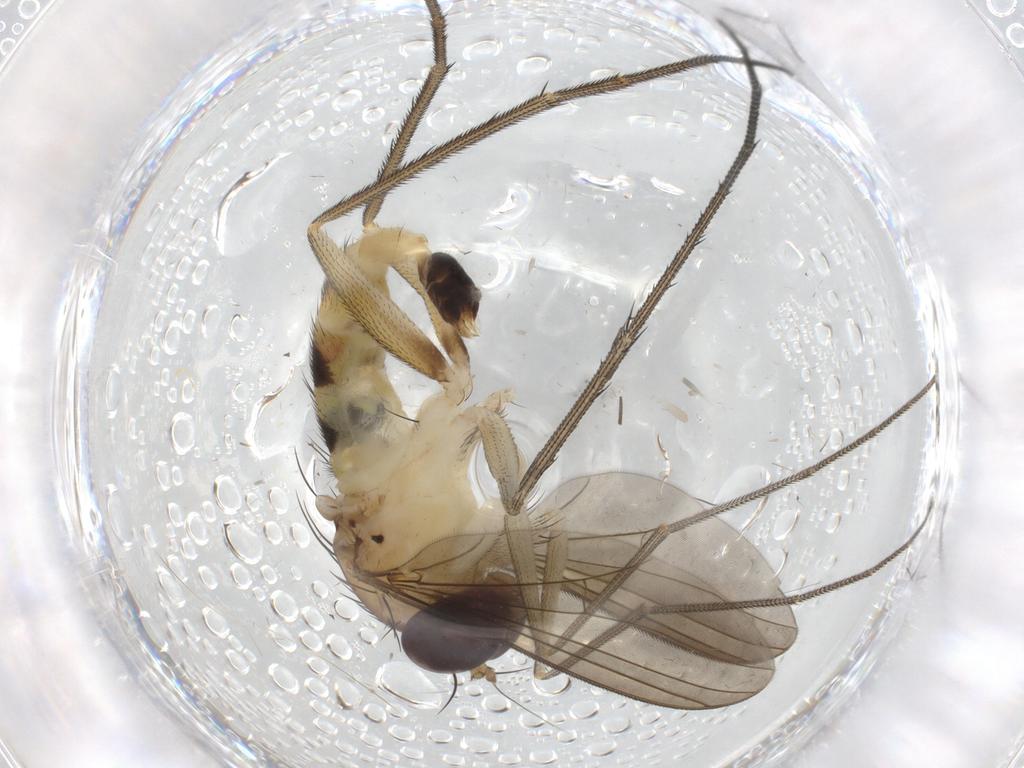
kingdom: Animalia
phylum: Arthropoda
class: Insecta
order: Diptera
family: Dolichopodidae
